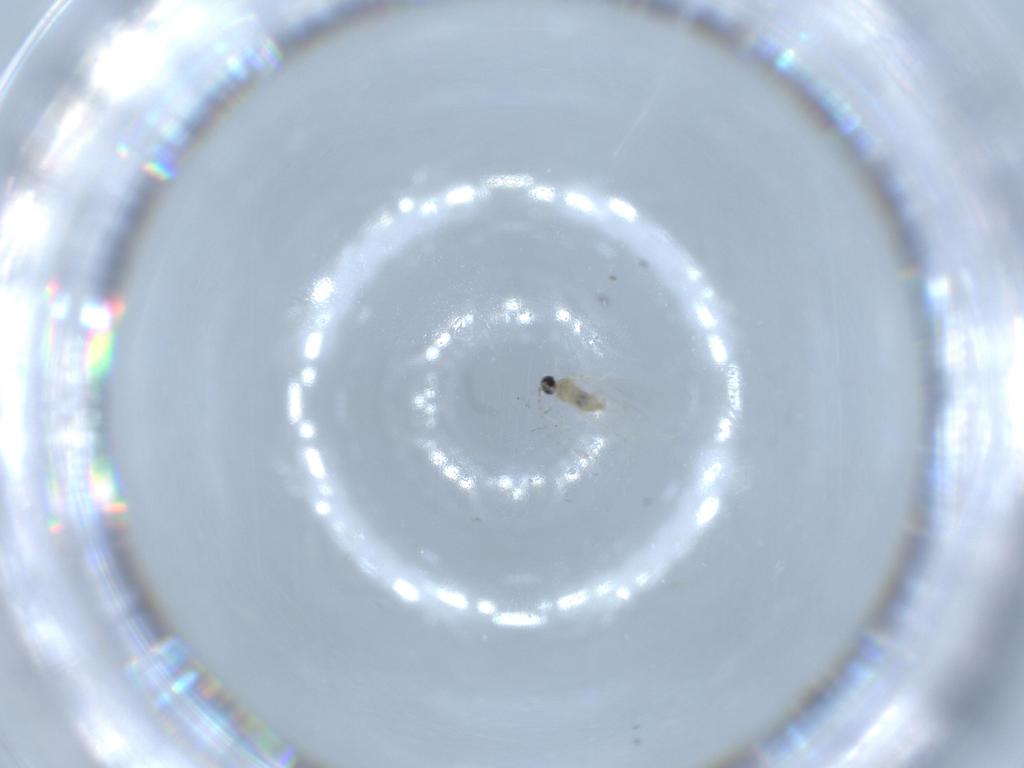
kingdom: Animalia
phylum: Arthropoda
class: Insecta
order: Diptera
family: Cecidomyiidae
